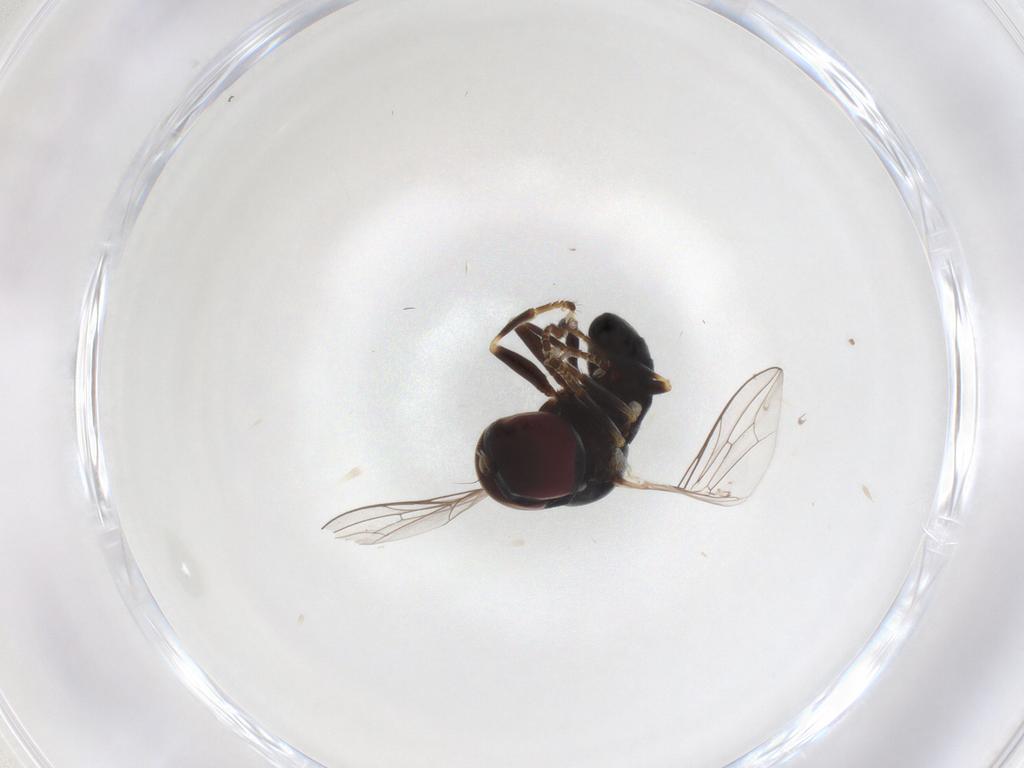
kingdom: Animalia
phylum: Arthropoda
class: Insecta
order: Diptera
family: Pipunculidae
